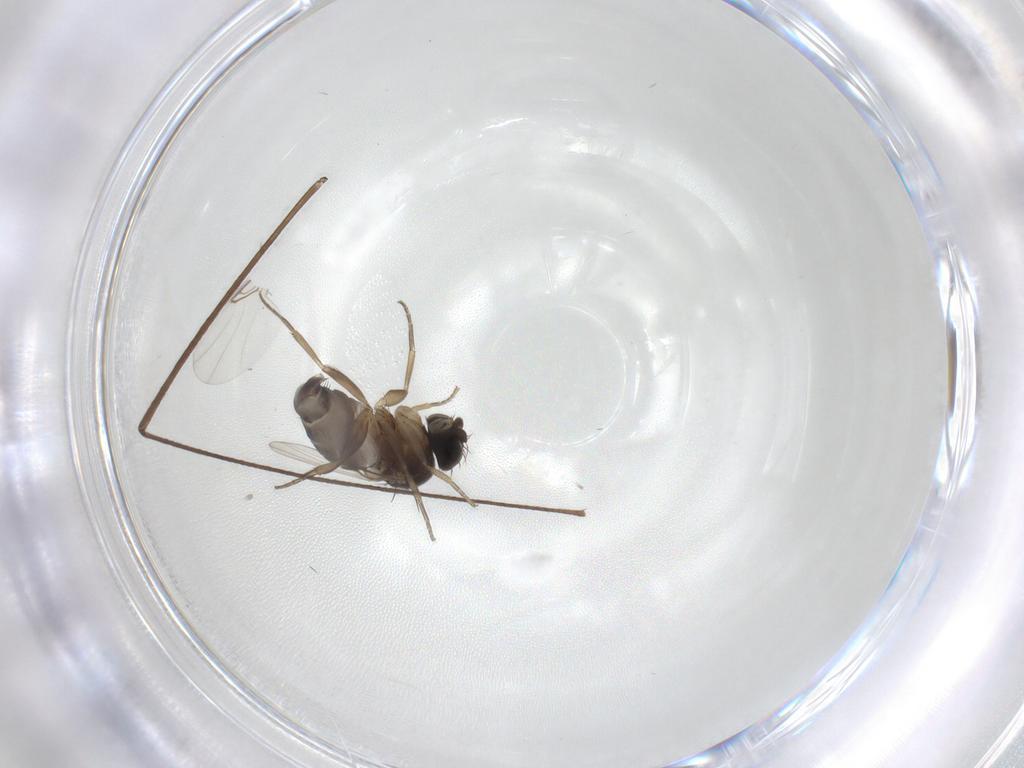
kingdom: Animalia
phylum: Arthropoda
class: Insecta
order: Diptera
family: Limoniidae
